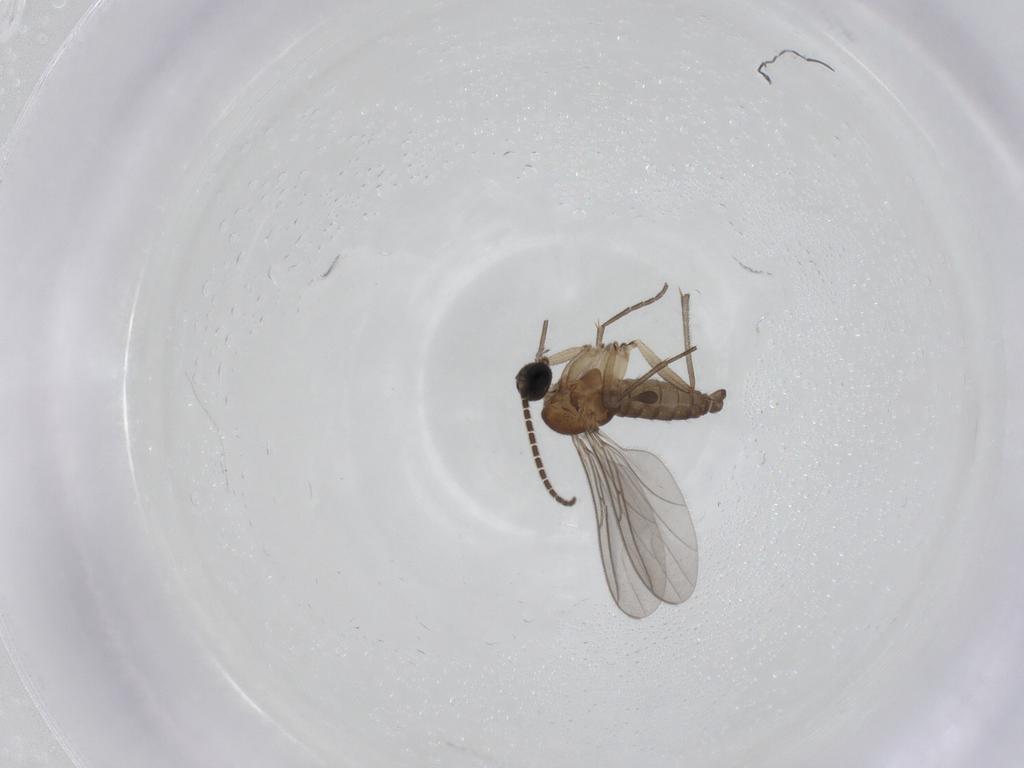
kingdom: Animalia
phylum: Arthropoda
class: Insecta
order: Diptera
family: Sciaridae
